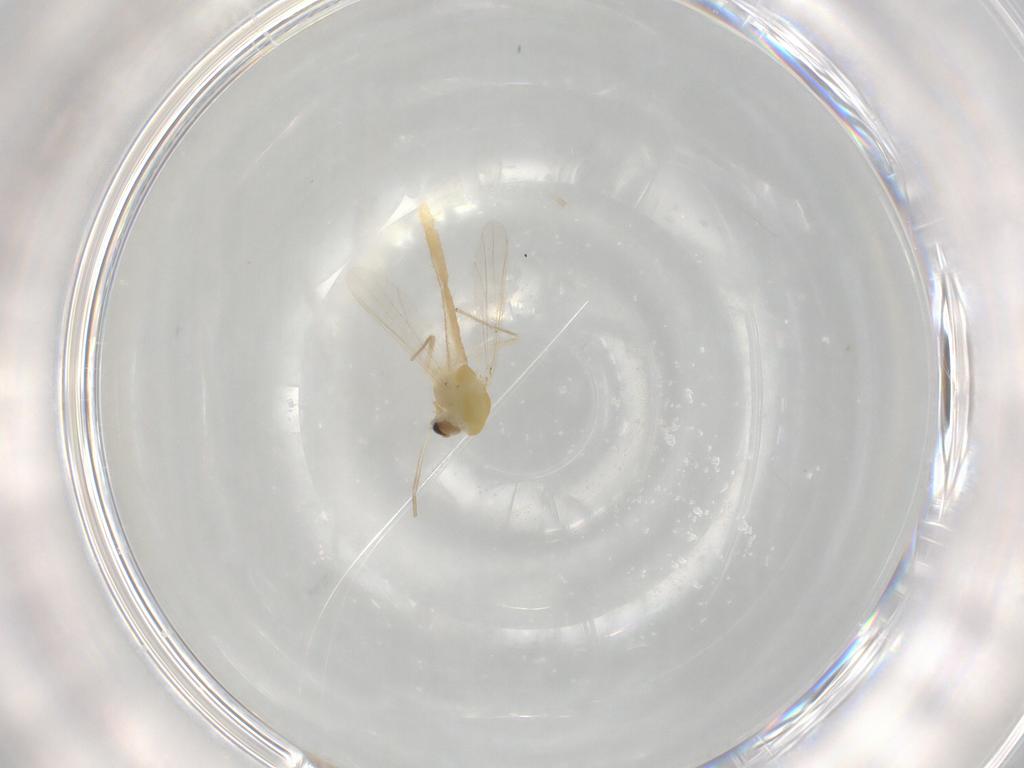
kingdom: Animalia
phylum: Arthropoda
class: Insecta
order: Diptera
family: Chironomidae
